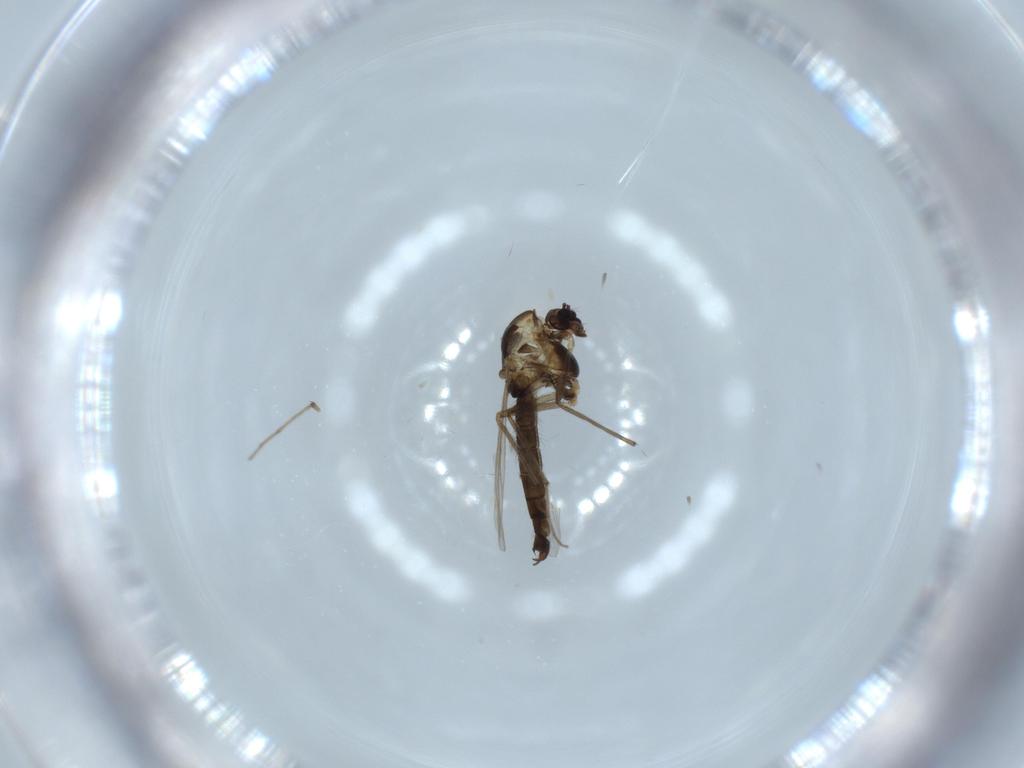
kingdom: Animalia
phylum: Arthropoda
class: Insecta
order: Diptera
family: Chironomidae
